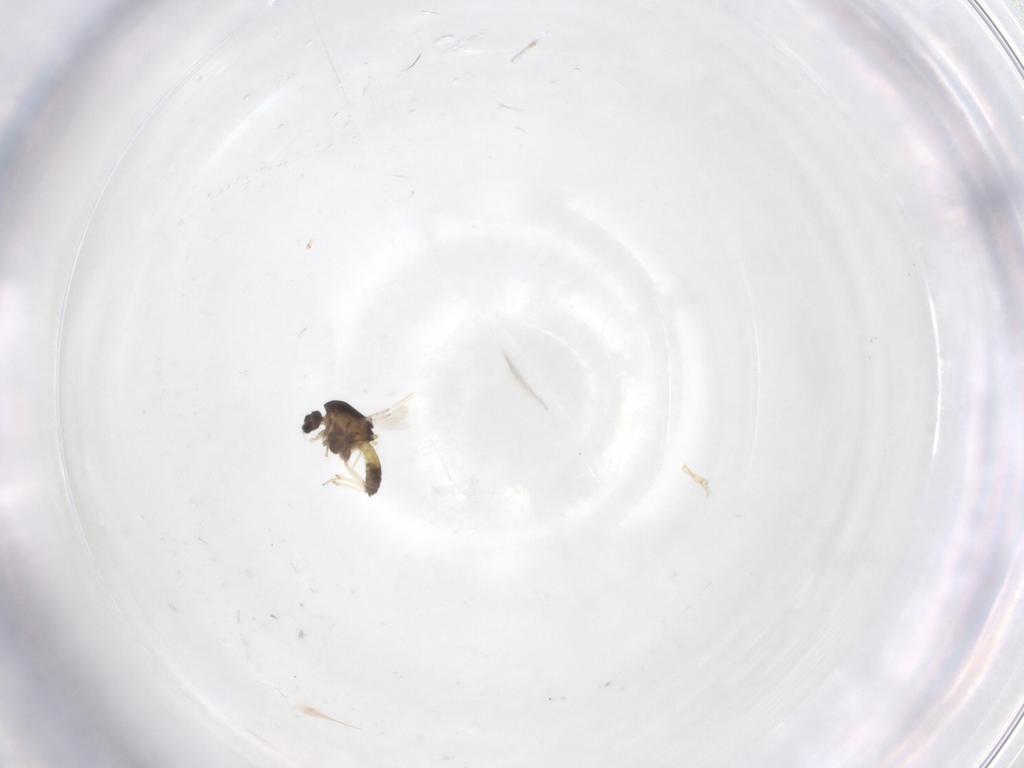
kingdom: Animalia
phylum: Arthropoda
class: Insecta
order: Diptera
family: Chironomidae
